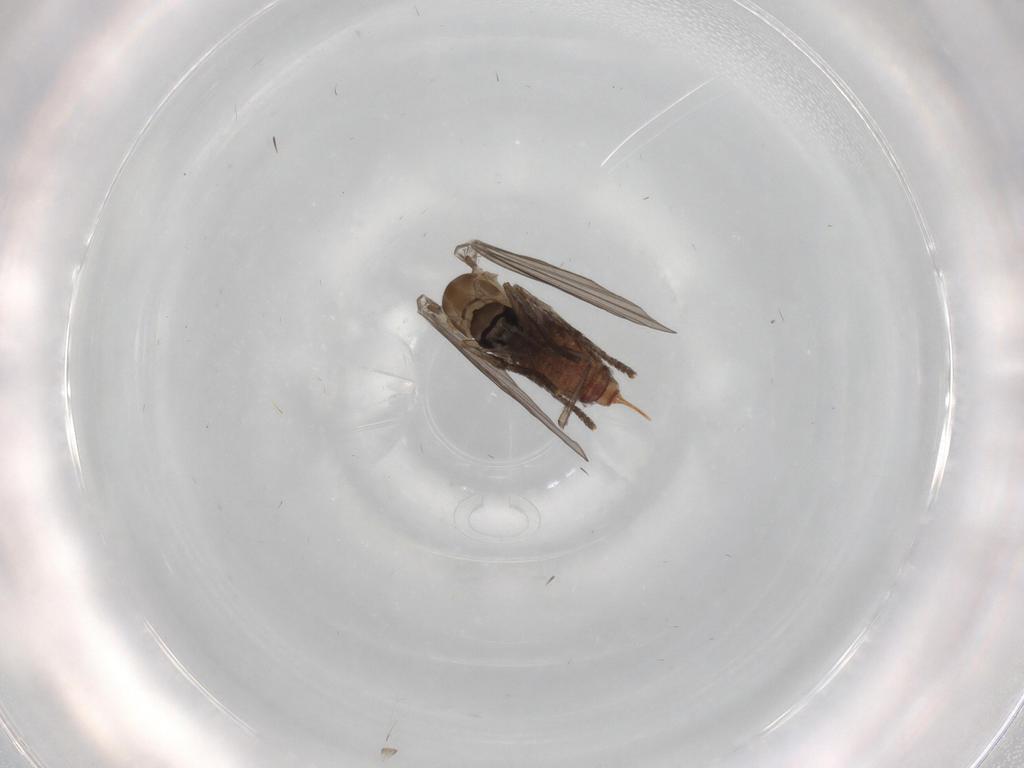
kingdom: Animalia
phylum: Arthropoda
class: Insecta
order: Diptera
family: Psychodidae
